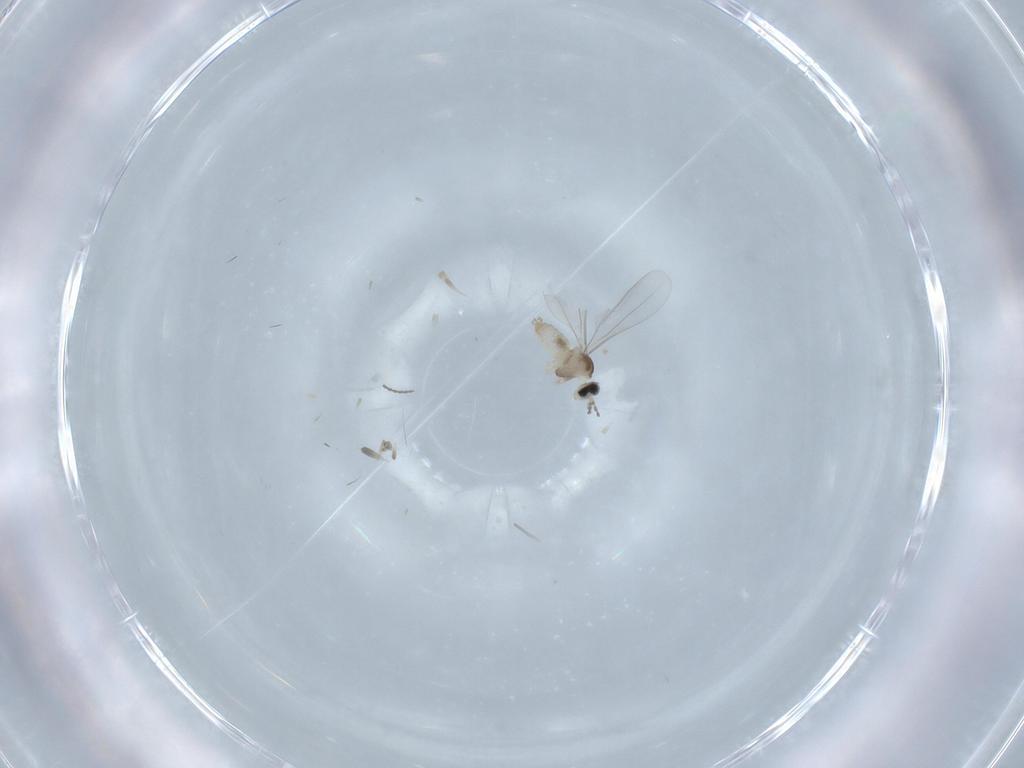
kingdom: Animalia
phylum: Arthropoda
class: Insecta
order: Diptera
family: Cecidomyiidae
